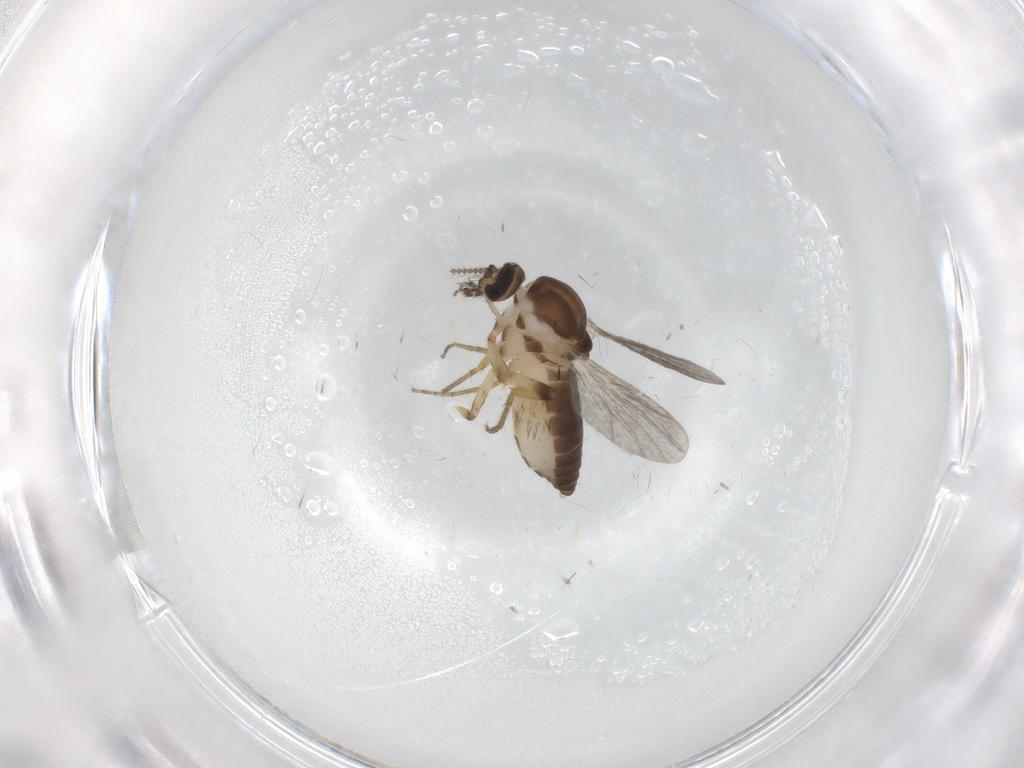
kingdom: Animalia
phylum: Arthropoda
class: Insecta
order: Diptera
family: Ceratopogonidae
